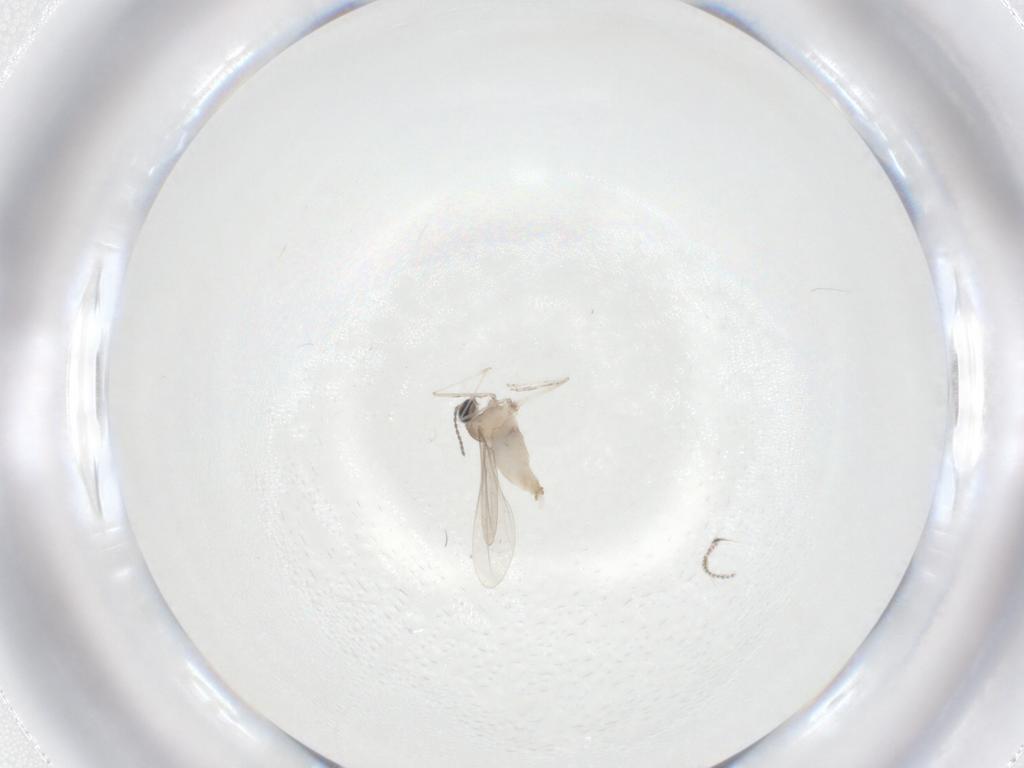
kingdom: Animalia
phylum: Arthropoda
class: Insecta
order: Diptera
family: Cecidomyiidae
